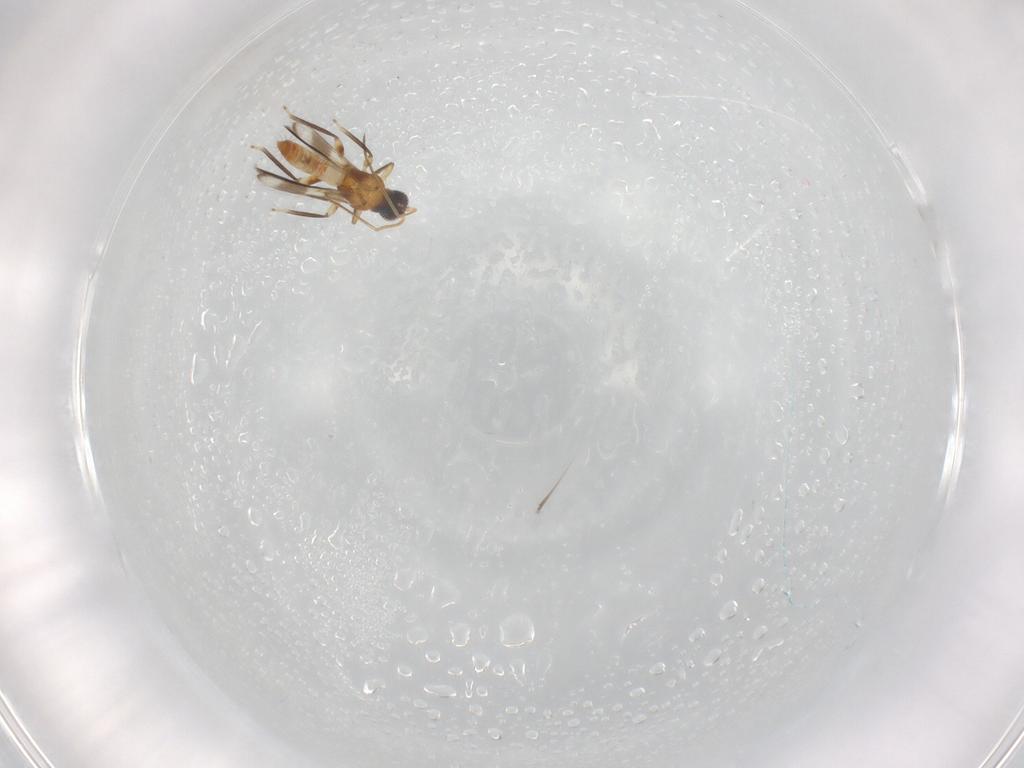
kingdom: Animalia
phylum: Arthropoda
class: Insecta
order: Thysanoptera
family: Aeolothripidae
